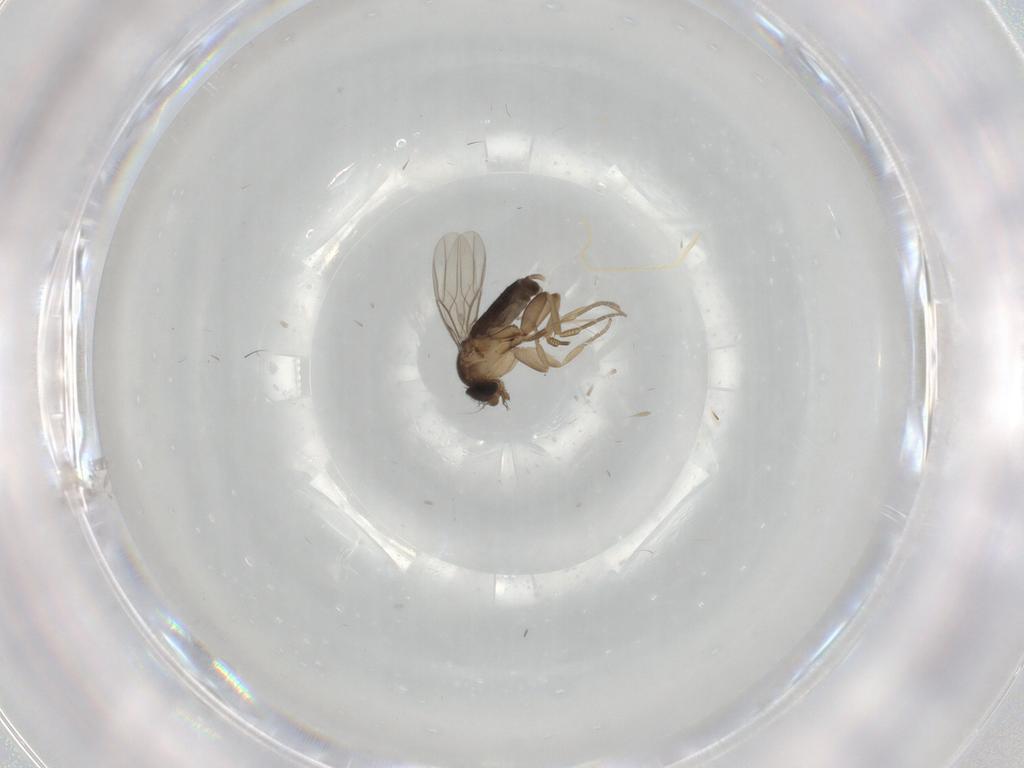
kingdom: Animalia
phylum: Arthropoda
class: Insecta
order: Diptera
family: Phoridae
